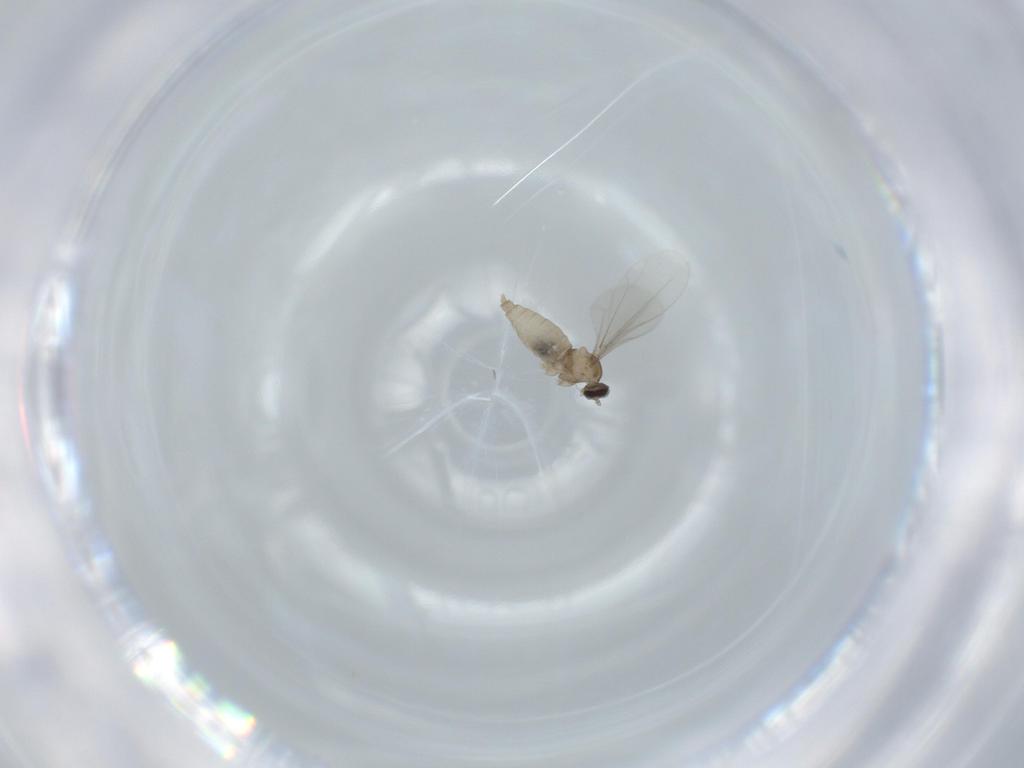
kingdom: Animalia
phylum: Arthropoda
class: Insecta
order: Diptera
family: Cecidomyiidae
